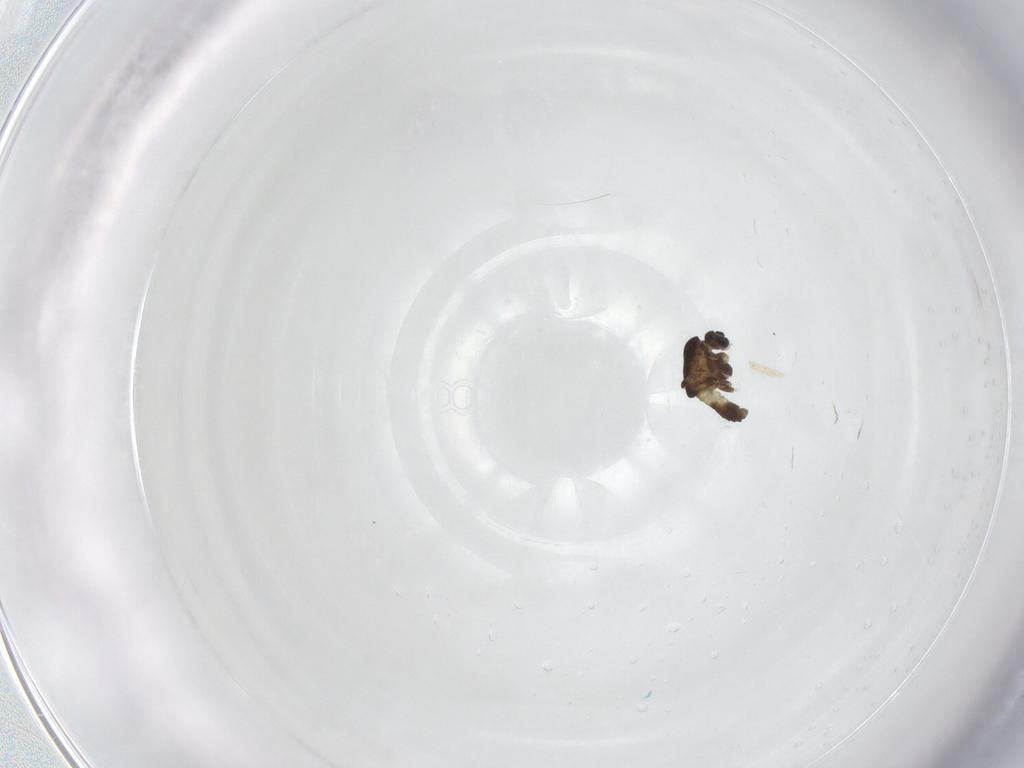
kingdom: Animalia
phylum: Arthropoda
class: Insecta
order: Diptera
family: Chironomidae
